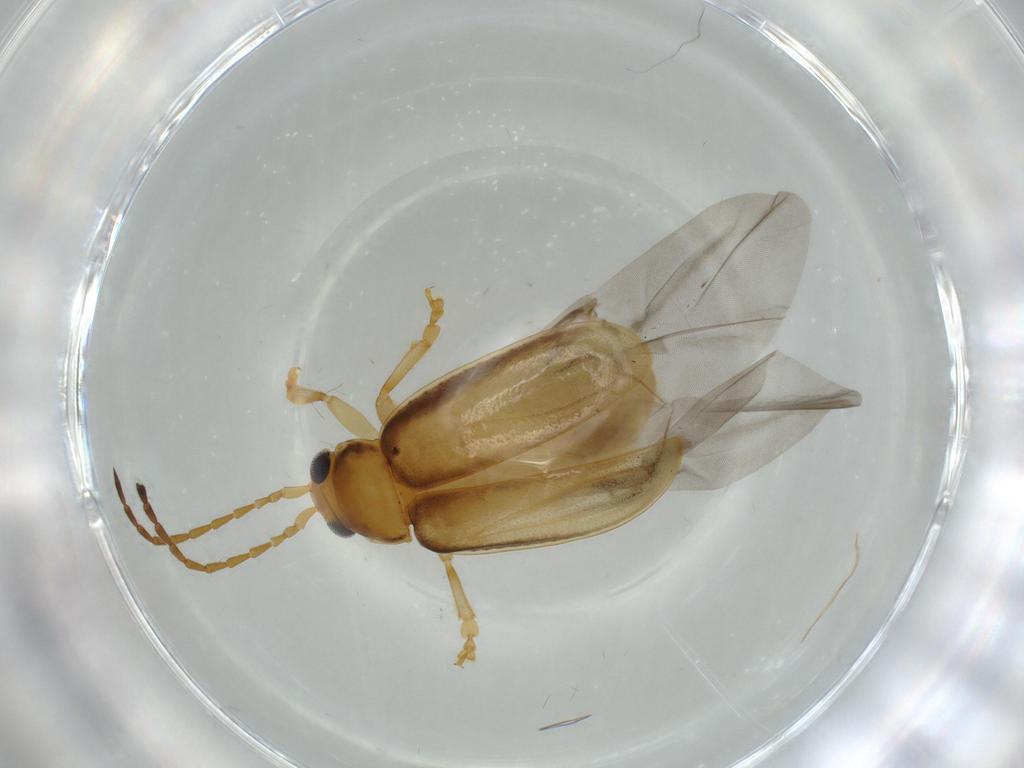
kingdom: Animalia
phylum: Arthropoda
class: Insecta
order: Coleoptera
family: Chrysomelidae
